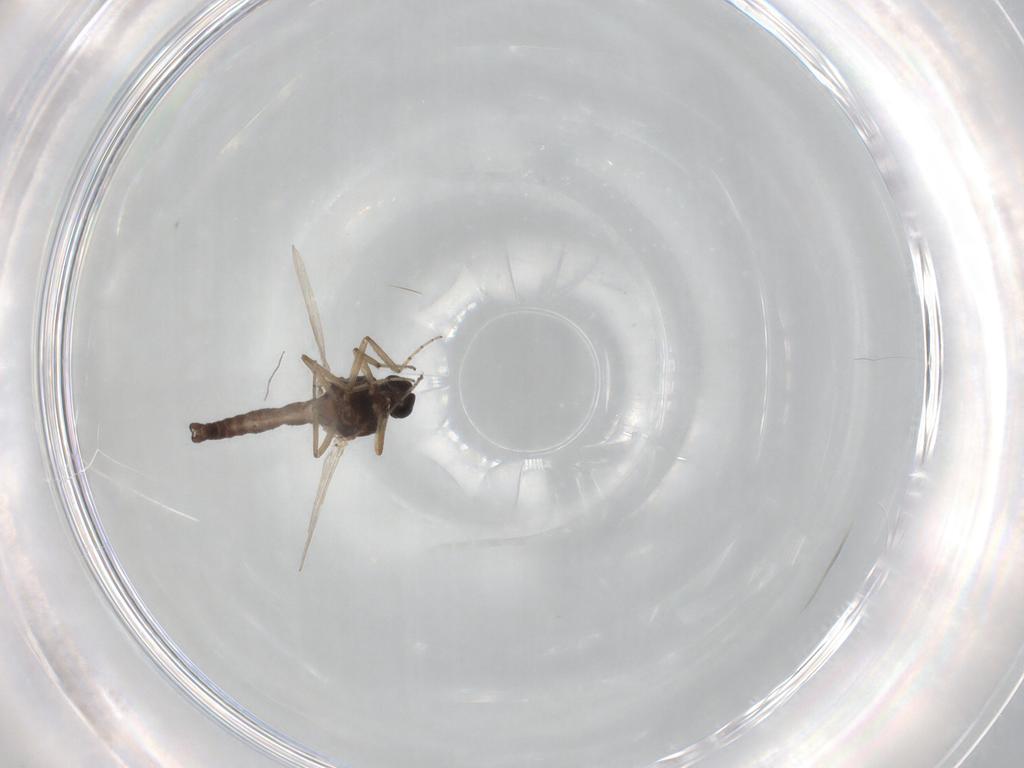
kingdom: Animalia
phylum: Arthropoda
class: Insecta
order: Diptera
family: Ceratopogonidae
